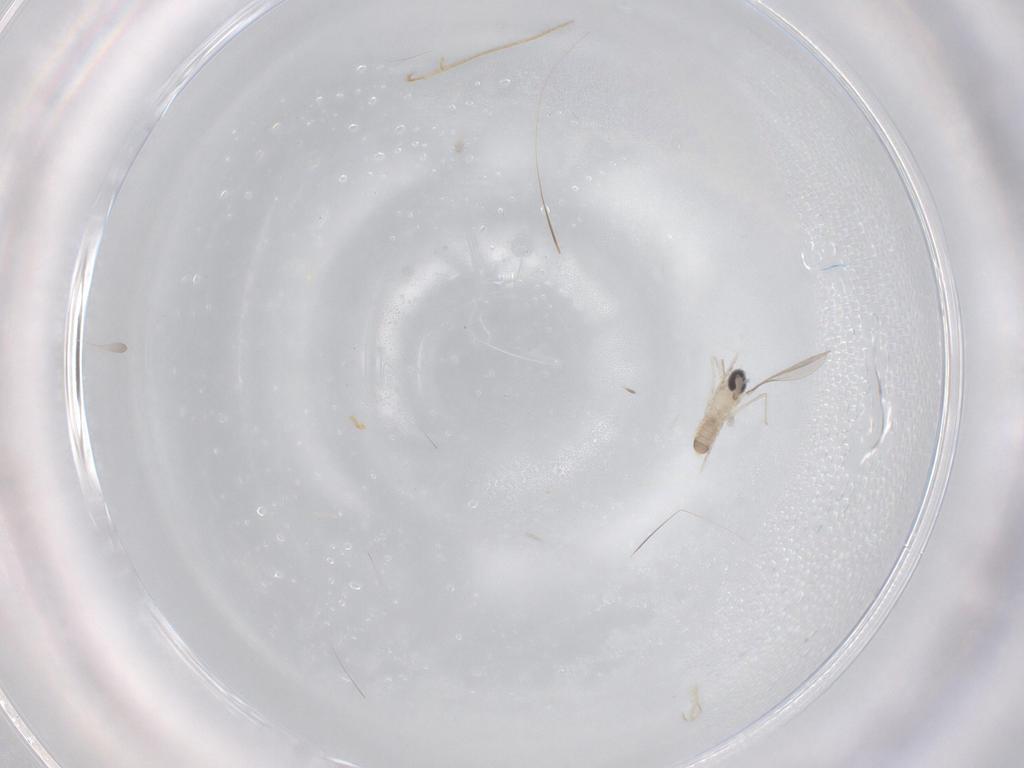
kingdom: Animalia
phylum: Arthropoda
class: Insecta
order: Diptera
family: Cecidomyiidae
